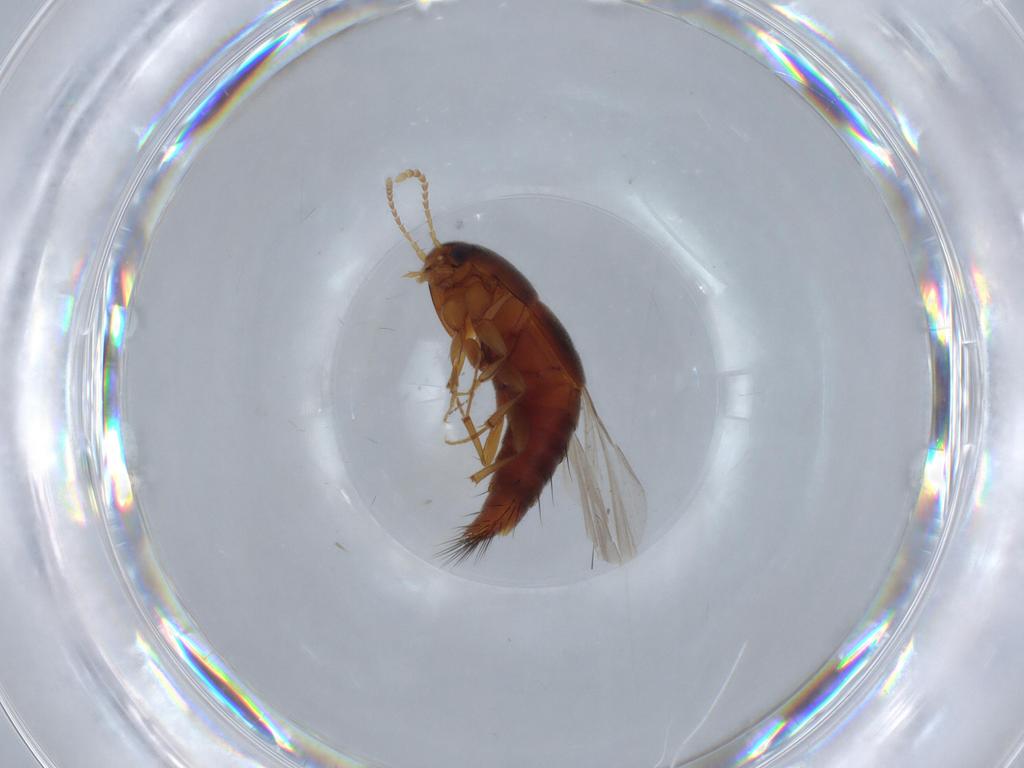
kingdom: Animalia
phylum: Arthropoda
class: Insecta
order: Coleoptera
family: Staphylinidae
